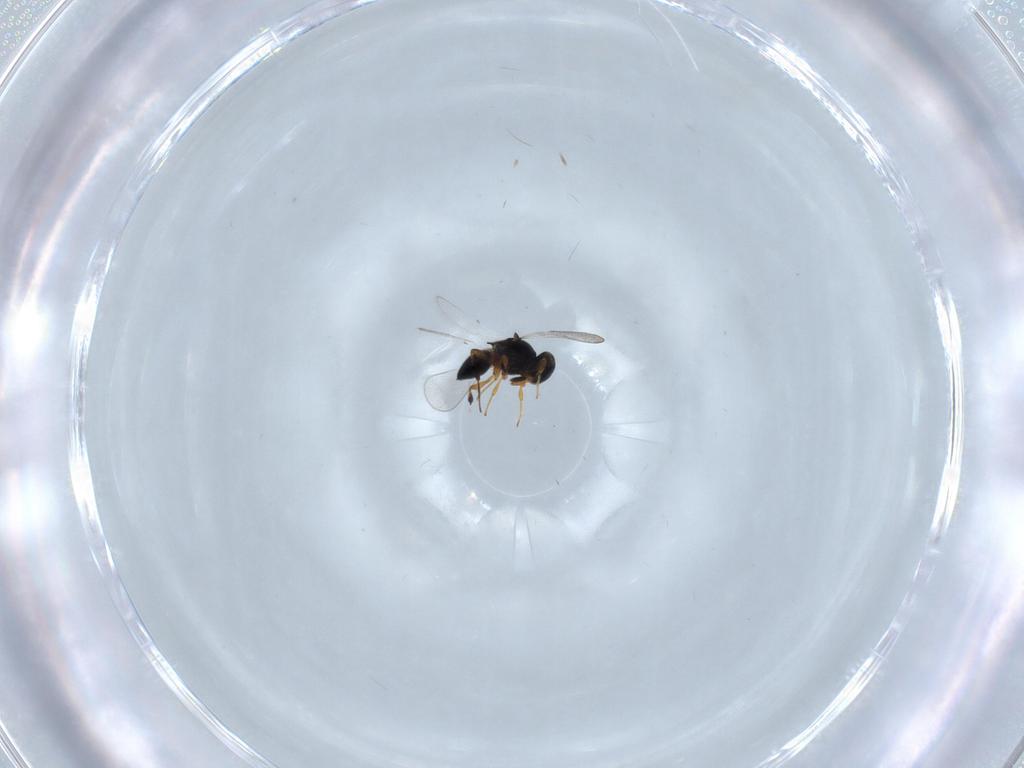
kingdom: Animalia
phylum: Arthropoda
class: Insecta
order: Hymenoptera
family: Platygastridae
